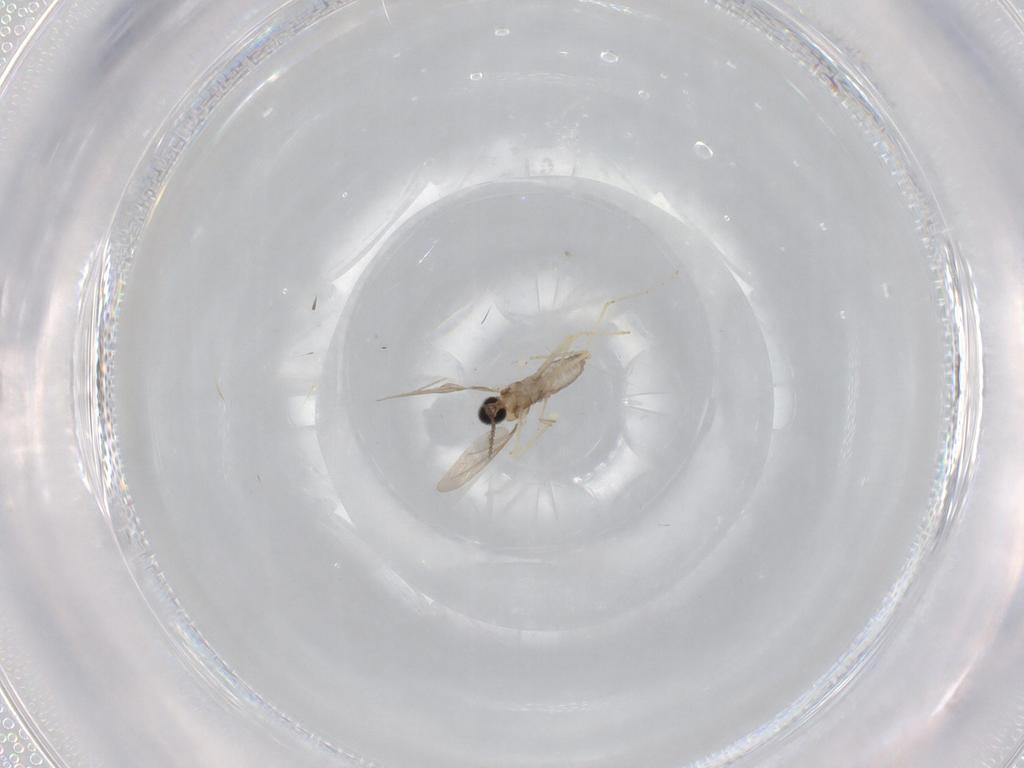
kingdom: Animalia
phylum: Arthropoda
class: Insecta
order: Diptera
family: Cecidomyiidae
